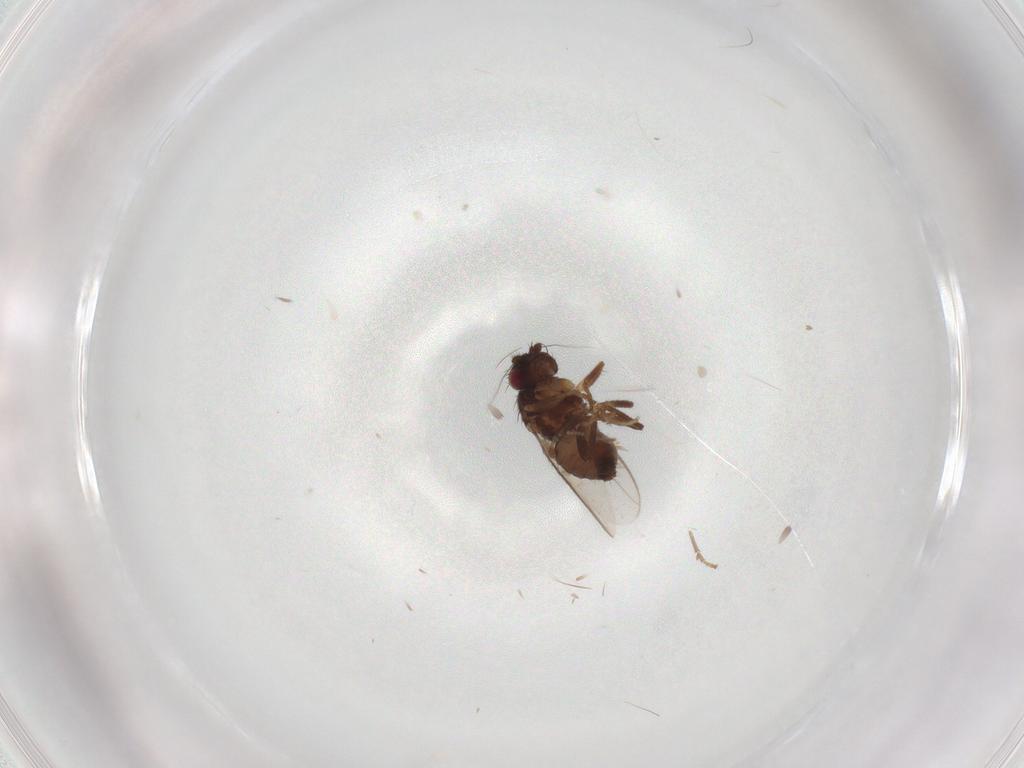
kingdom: Animalia
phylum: Arthropoda
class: Insecta
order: Diptera
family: Sphaeroceridae
